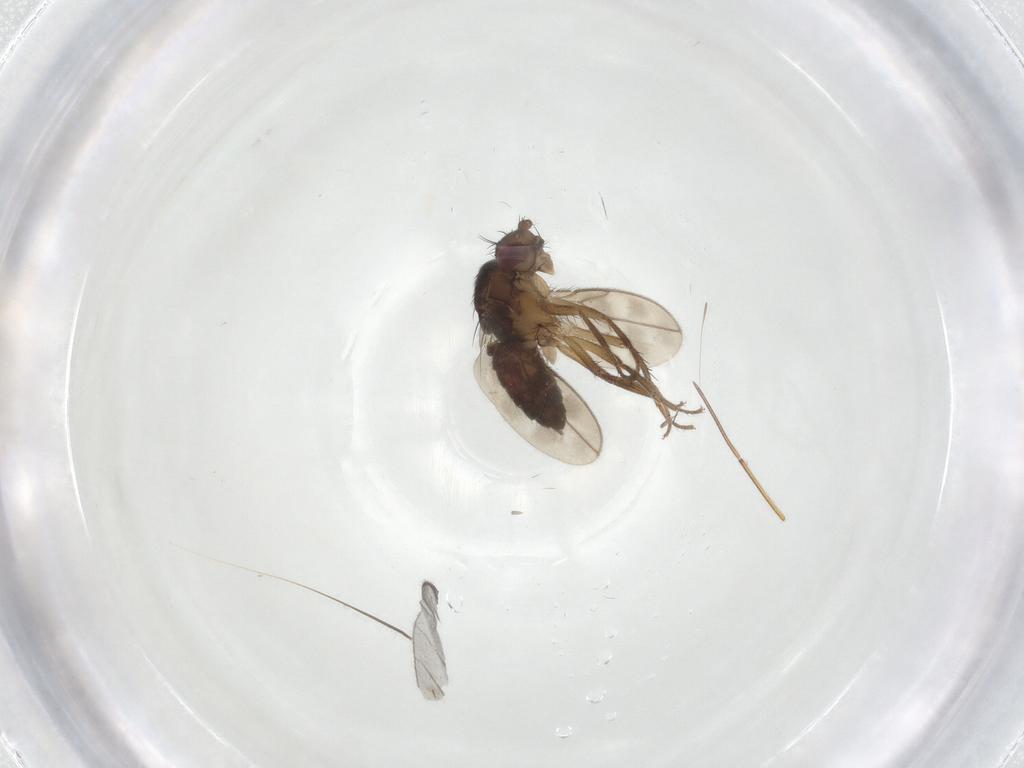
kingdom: Animalia
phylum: Arthropoda
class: Insecta
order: Diptera
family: Sphaeroceridae
